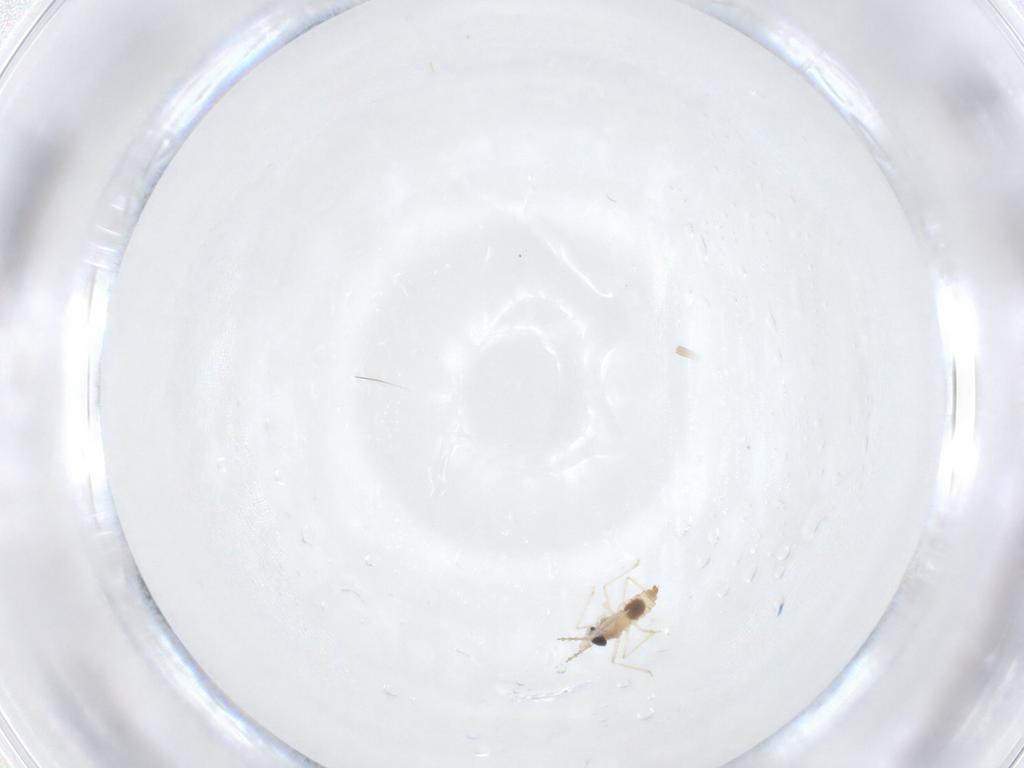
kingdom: Animalia
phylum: Arthropoda
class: Insecta
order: Diptera
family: Cecidomyiidae
